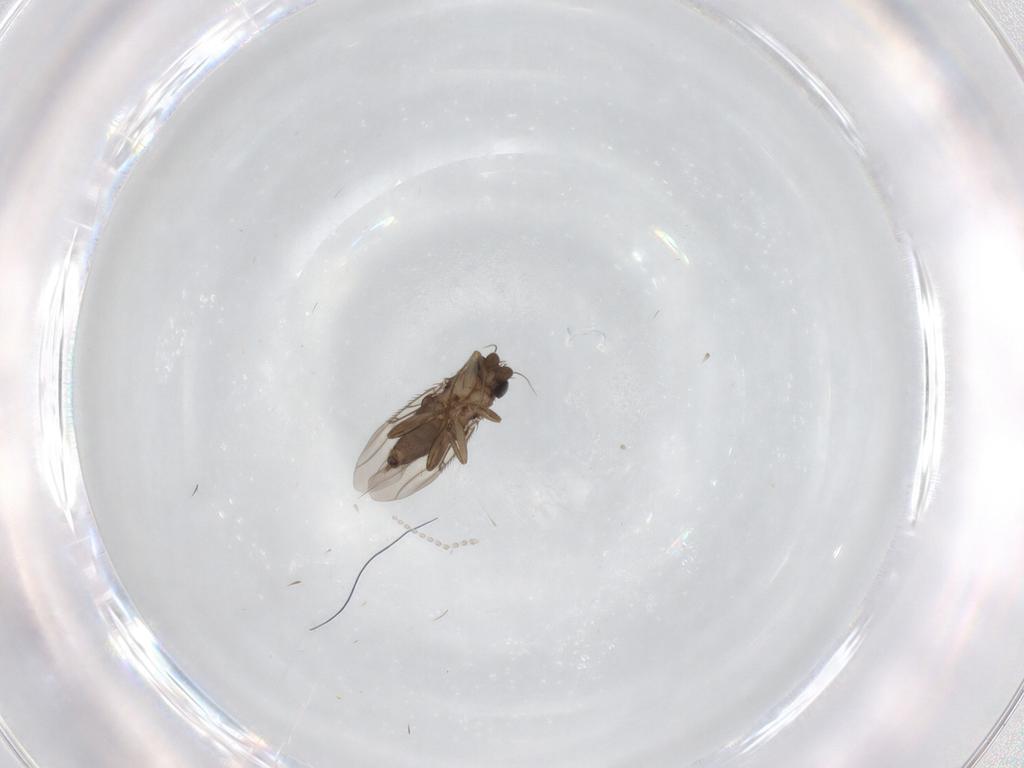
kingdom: Animalia
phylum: Arthropoda
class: Insecta
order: Diptera
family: Phoridae
